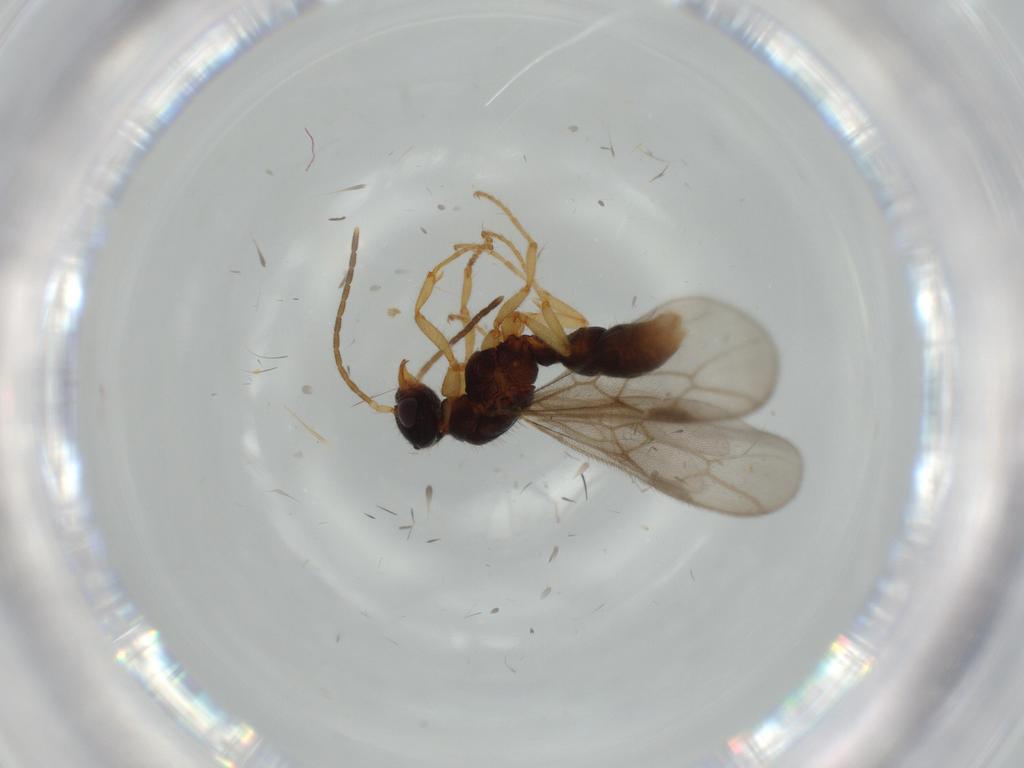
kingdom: Animalia
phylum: Arthropoda
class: Insecta
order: Hymenoptera
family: Formicidae
